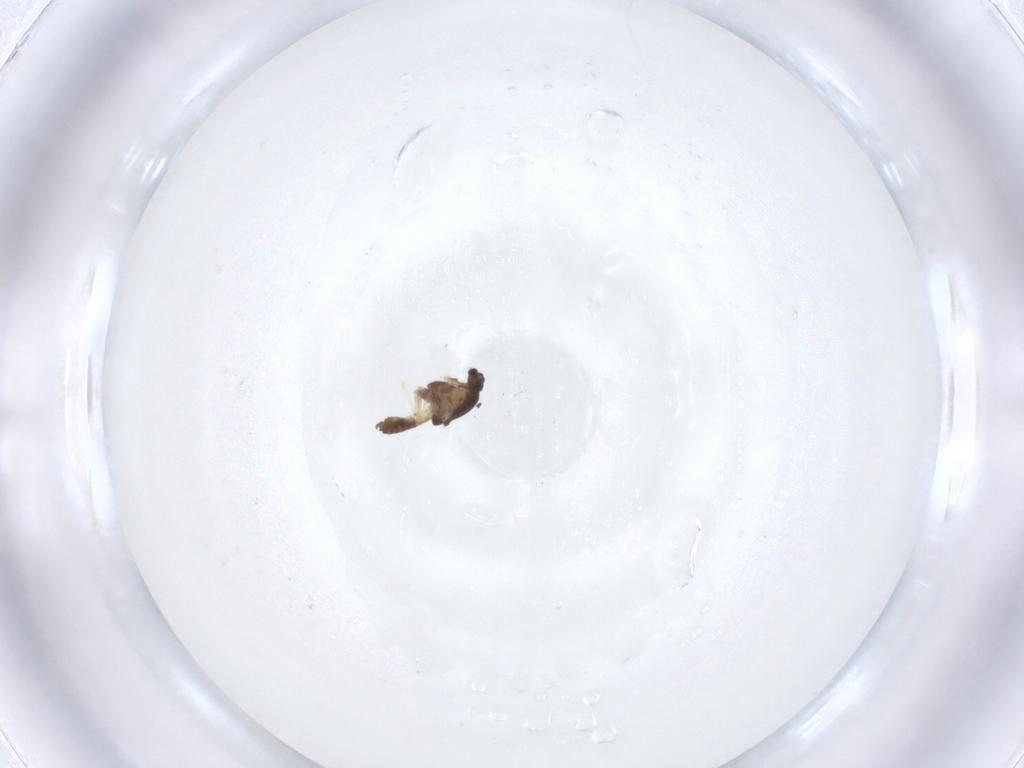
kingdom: Animalia
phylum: Arthropoda
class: Insecta
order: Diptera
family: Chironomidae
